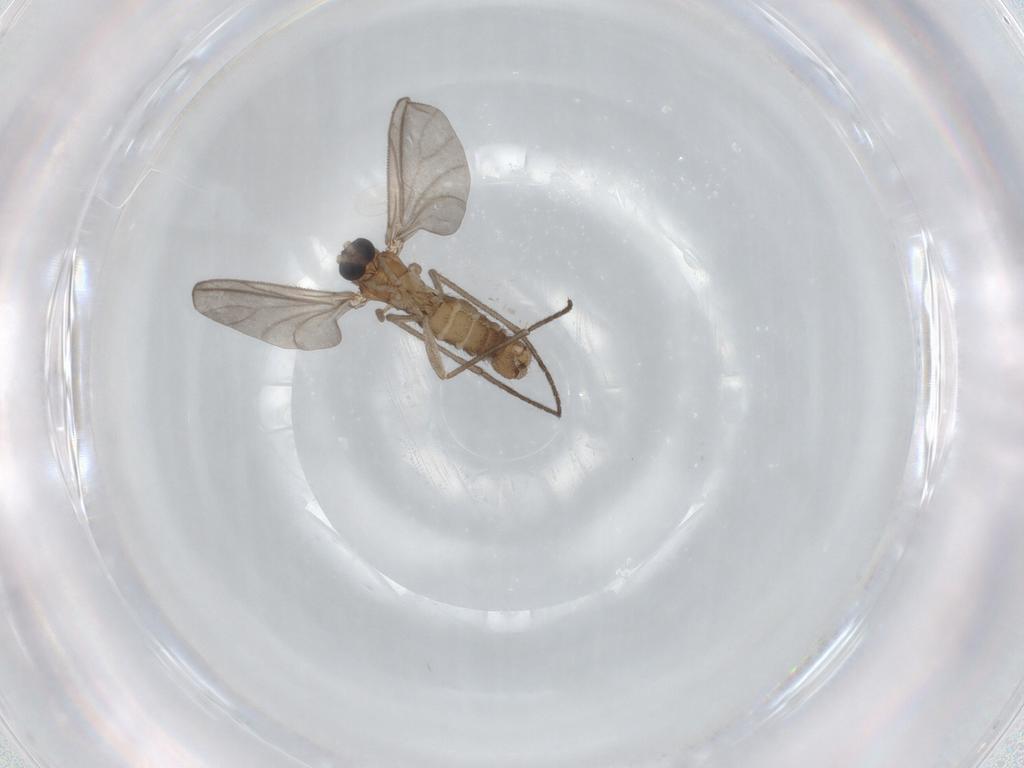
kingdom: Animalia
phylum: Arthropoda
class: Insecta
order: Diptera
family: Sciaridae
